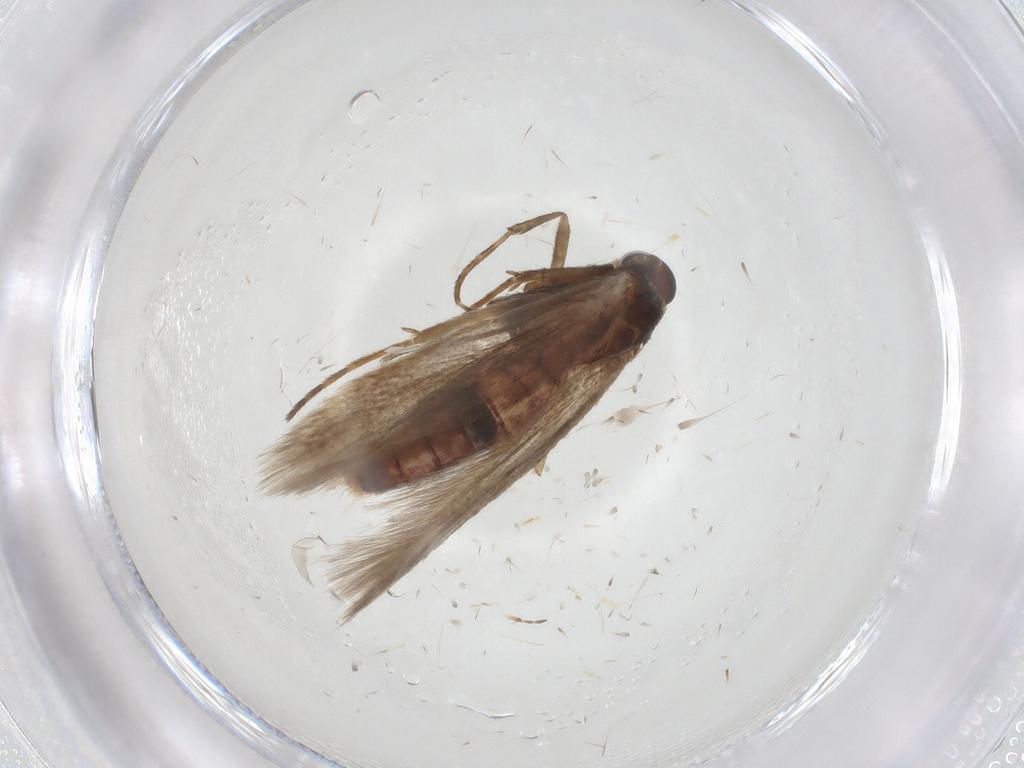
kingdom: Animalia
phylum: Arthropoda
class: Insecta
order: Lepidoptera
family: Cosmopterigidae
